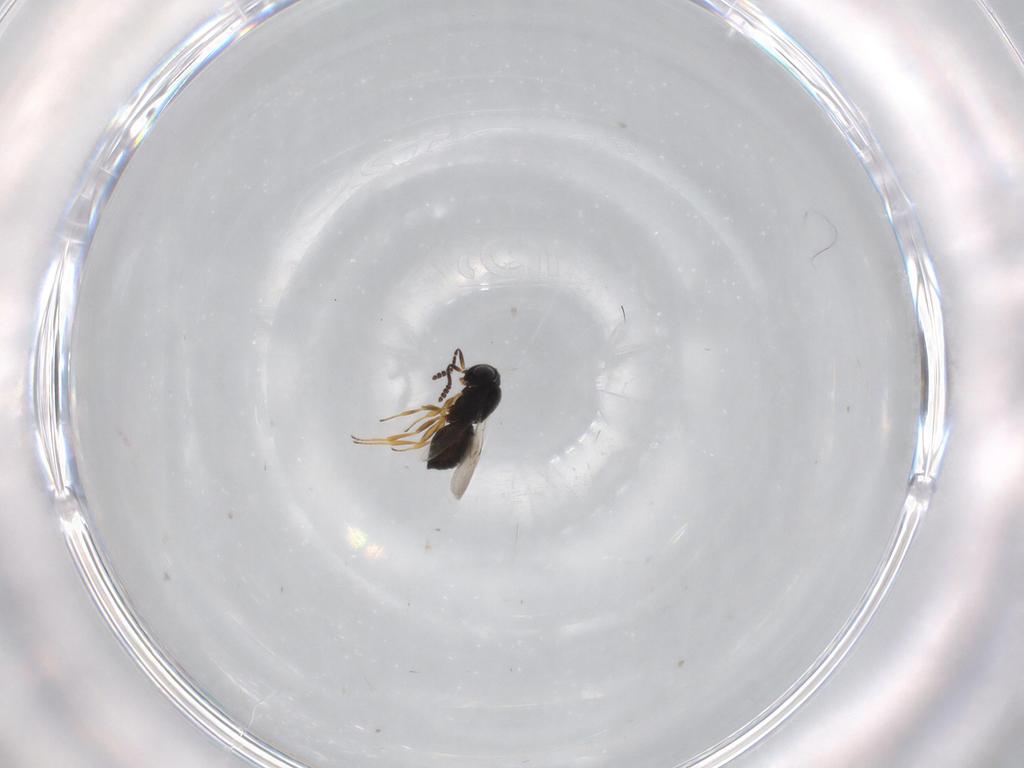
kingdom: Animalia
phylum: Arthropoda
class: Insecta
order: Hymenoptera
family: Scelionidae
